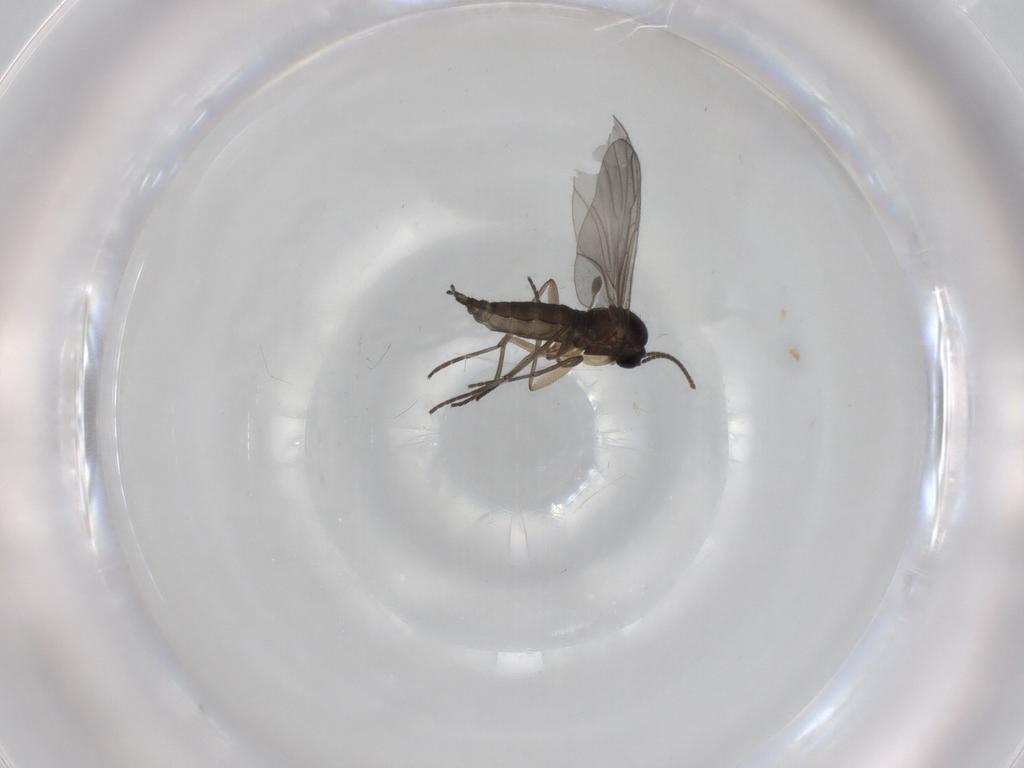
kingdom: Animalia
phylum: Arthropoda
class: Insecta
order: Diptera
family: Sciaridae
